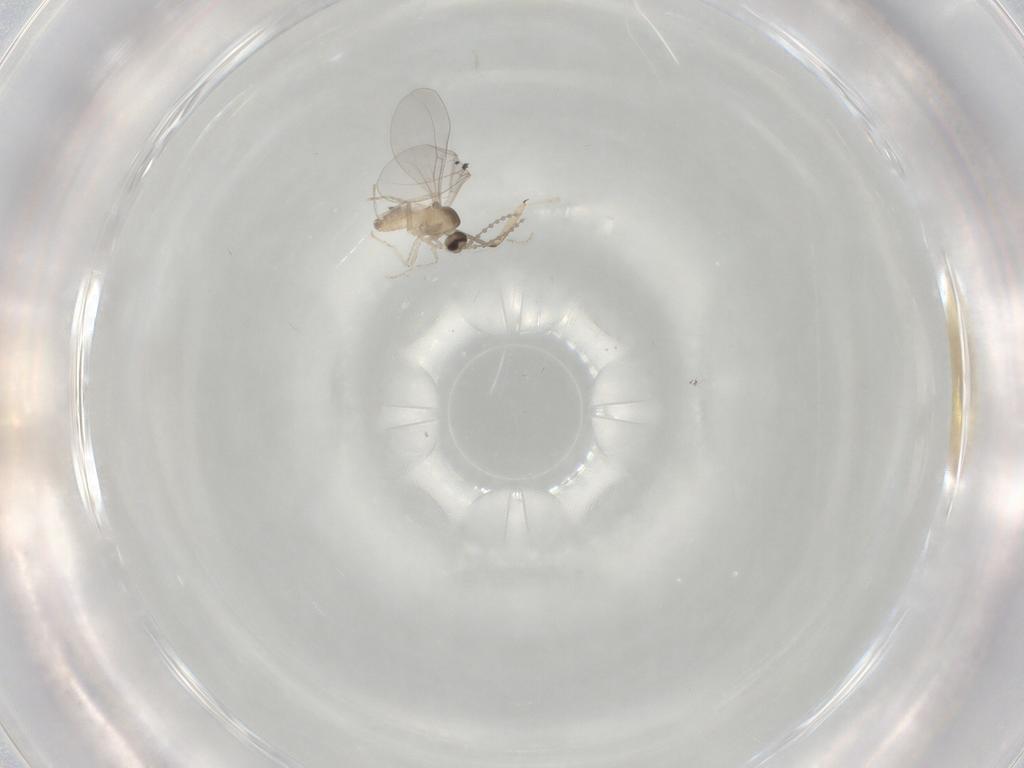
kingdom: Animalia
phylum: Arthropoda
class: Insecta
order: Diptera
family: Cecidomyiidae
